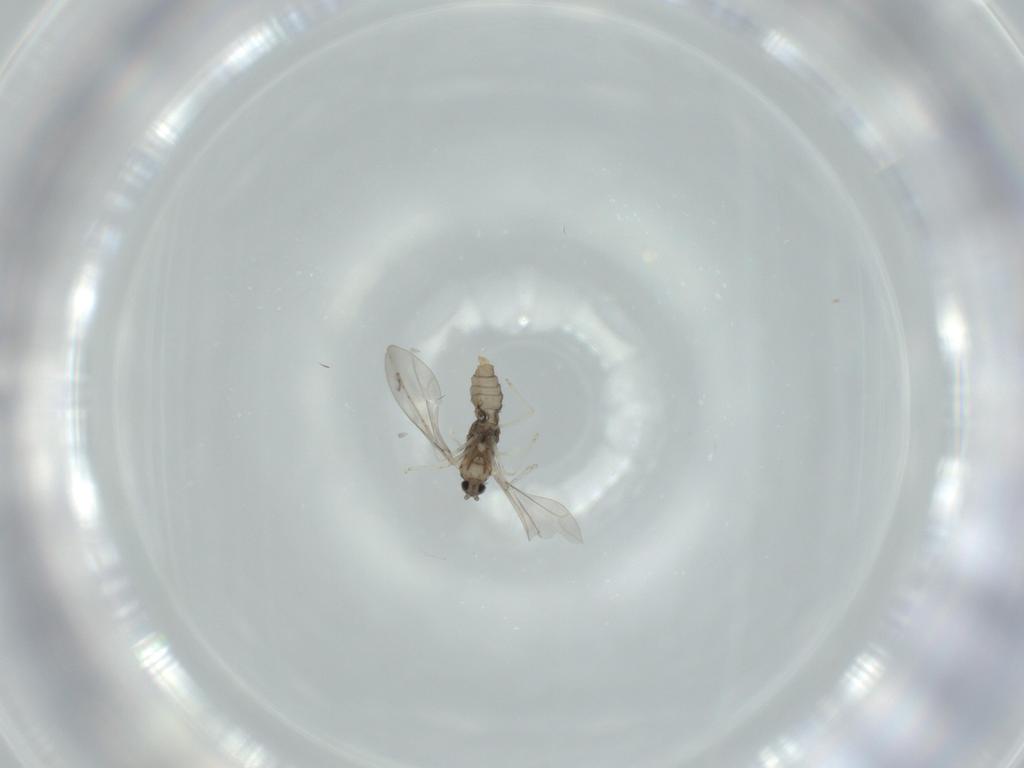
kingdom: Animalia
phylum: Arthropoda
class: Insecta
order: Diptera
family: Sciaridae
